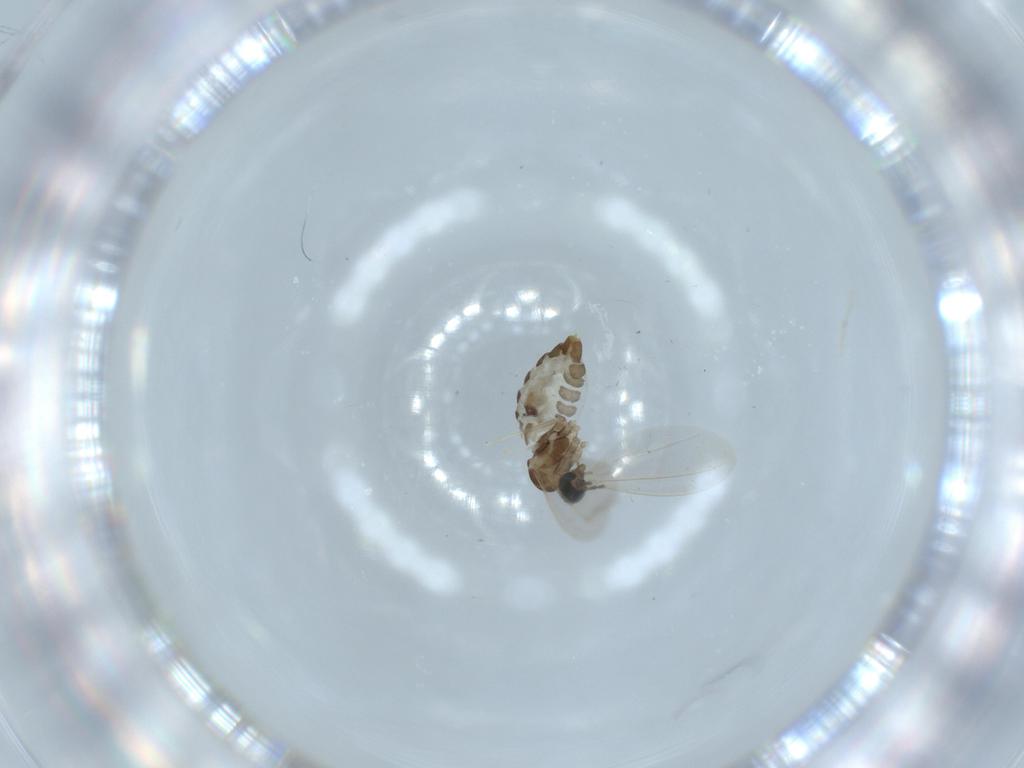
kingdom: Animalia
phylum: Arthropoda
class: Insecta
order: Diptera
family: Cecidomyiidae
